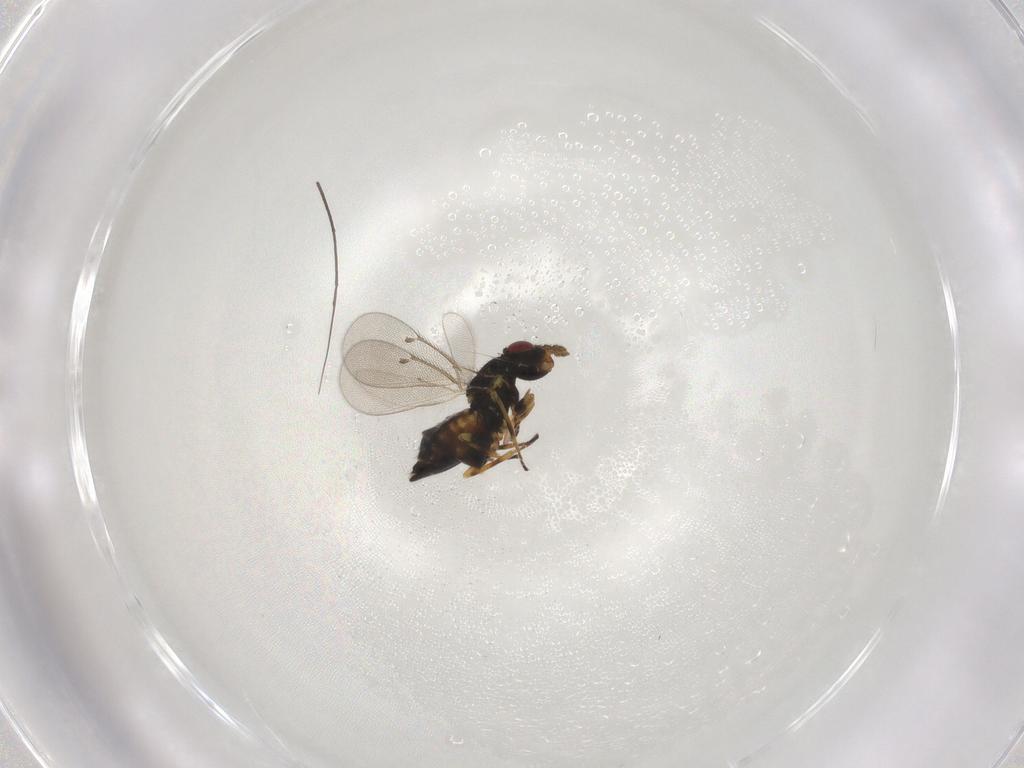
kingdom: Animalia
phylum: Arthropoda
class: Insecta
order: Hymenoptera
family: Eulophidae
